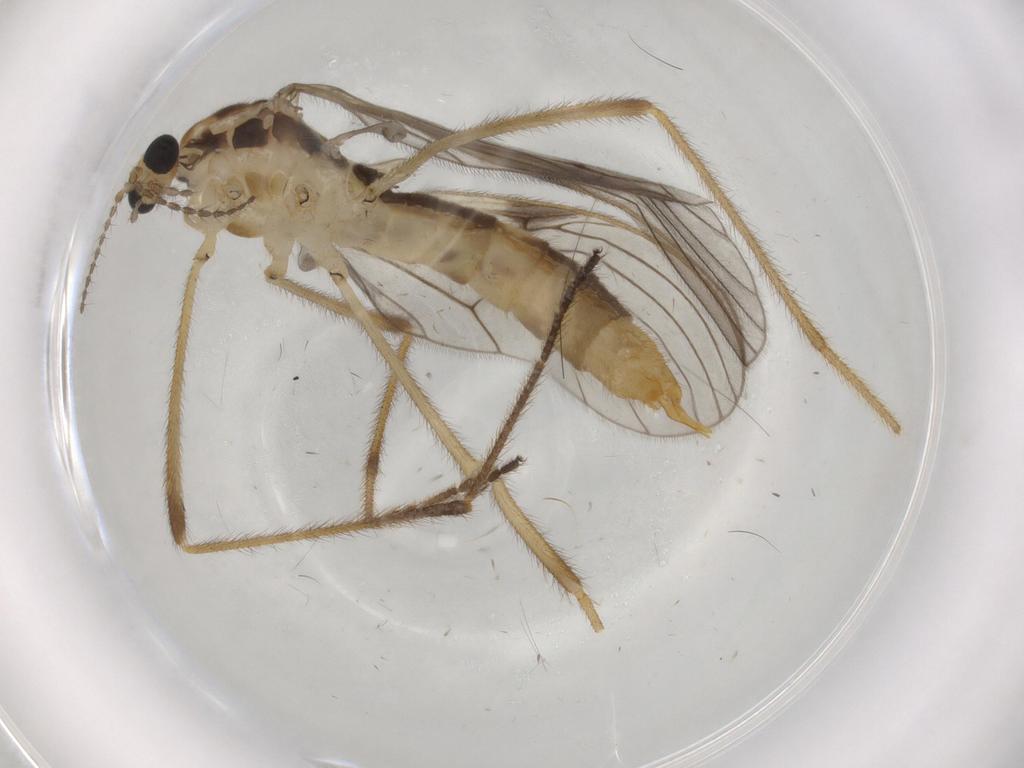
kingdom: Animalia
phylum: Arthropoda
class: Insecta
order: Diptera
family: Limoniidae
